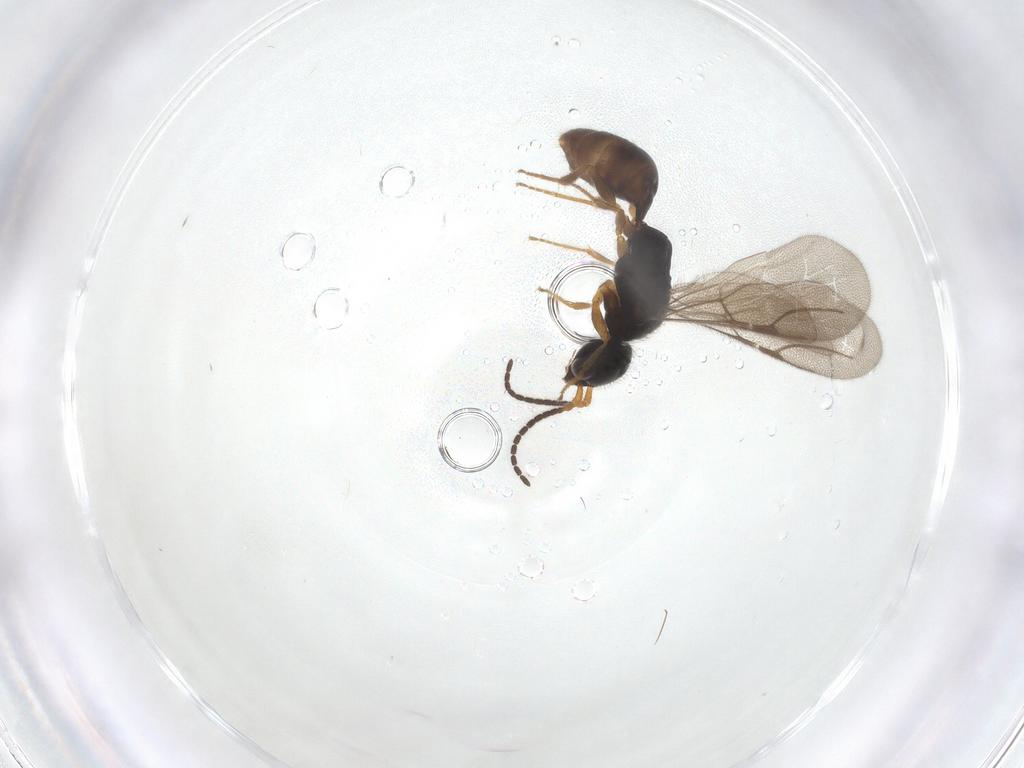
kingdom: Animalia
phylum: Arthropoda
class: Insecta
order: Hymenoptera
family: Bethylidae
